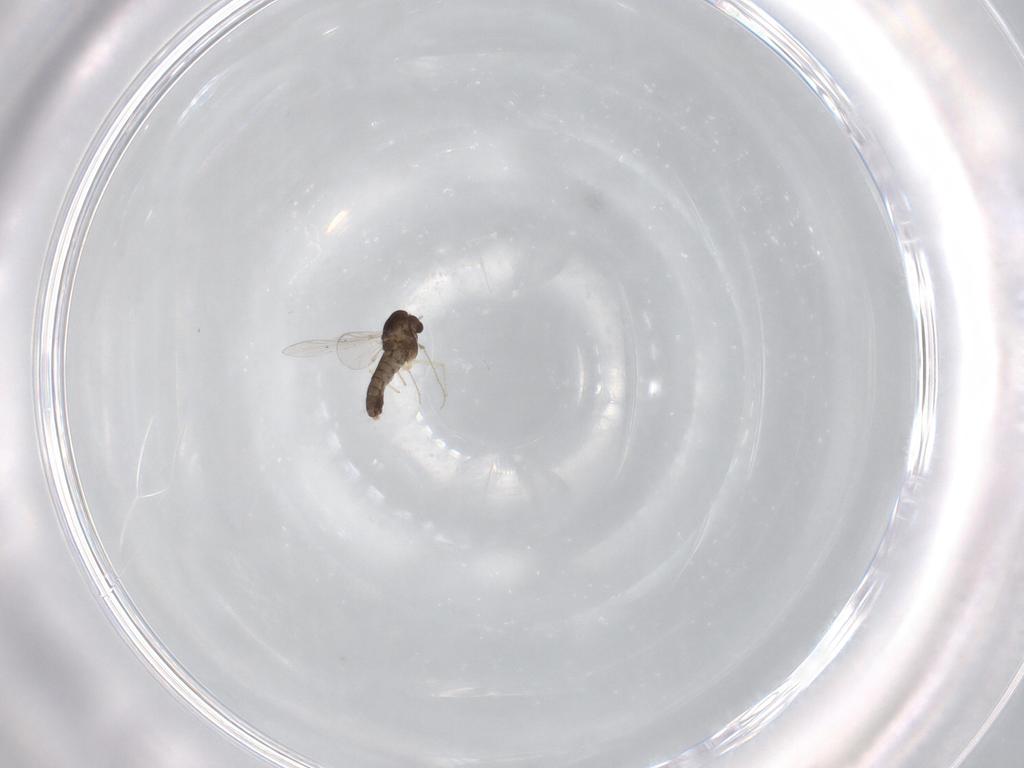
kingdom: Animalia
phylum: Arthropoda
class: Insecta
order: Diptera
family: Chironomidae
